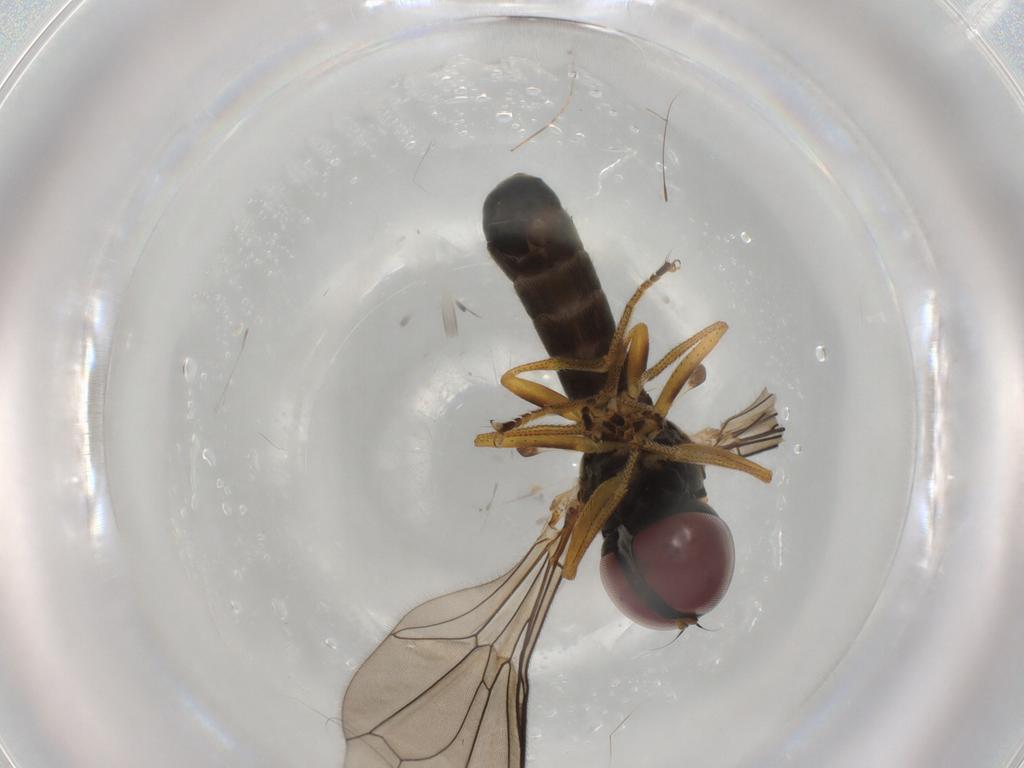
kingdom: Animalia
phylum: Arthropoda
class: Insecta
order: Diptera
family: Pipunculidae
